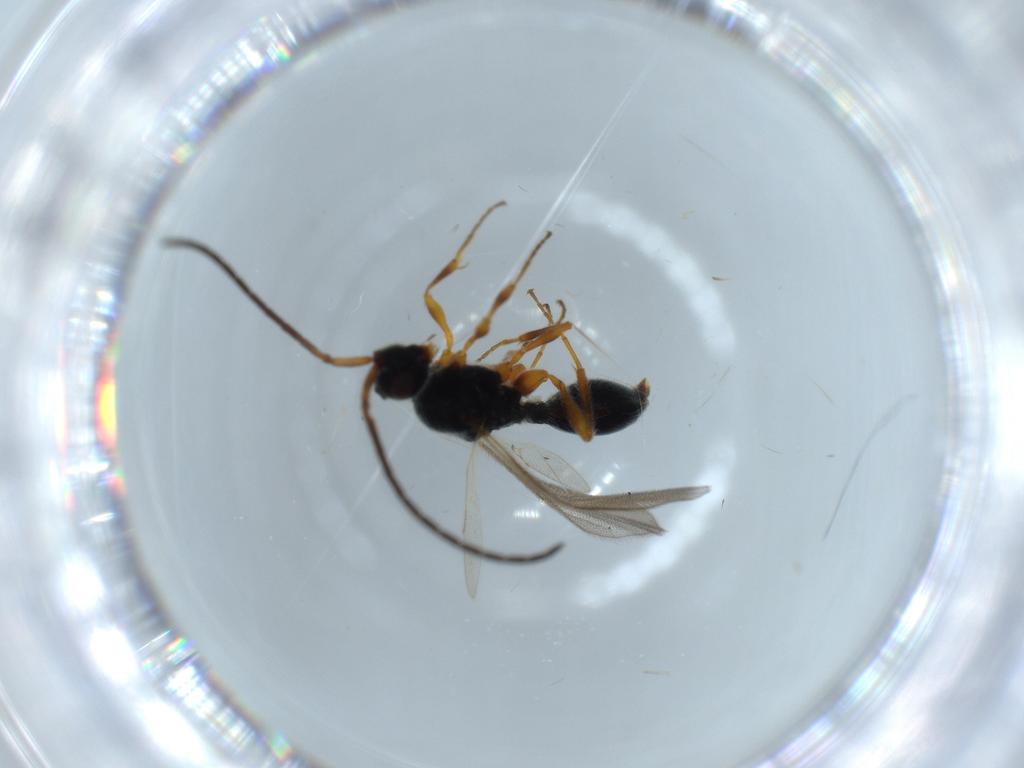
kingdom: Animalia
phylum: Arthropoda
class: Insecta
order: Hymenoptera
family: Diapriidae
